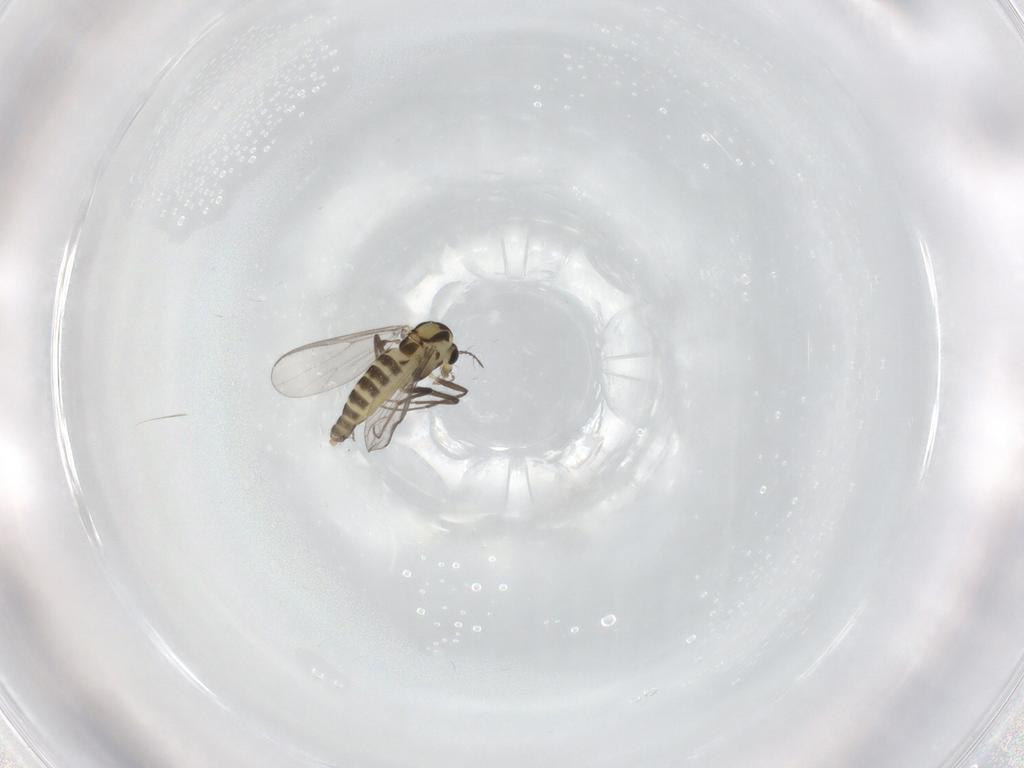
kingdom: Animalia
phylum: Arthropoda
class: Insecta
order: Diptera
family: Chironomidae
